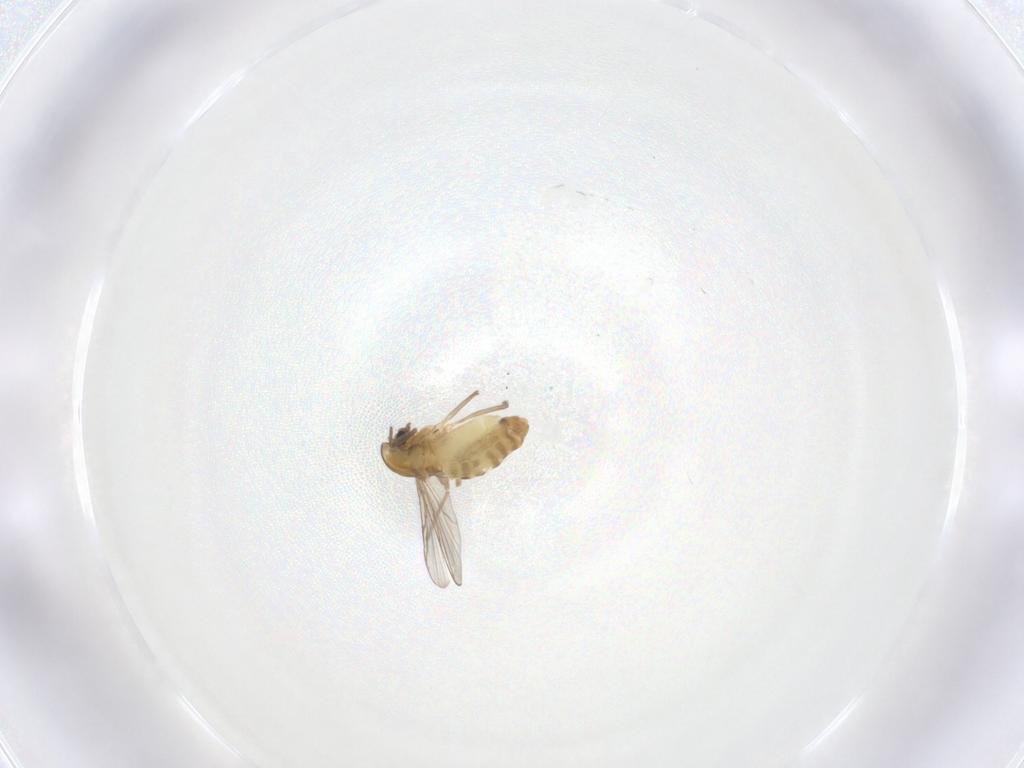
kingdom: Animalia
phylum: Arthropoda
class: Insecta
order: Diptera
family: Chironomidae
